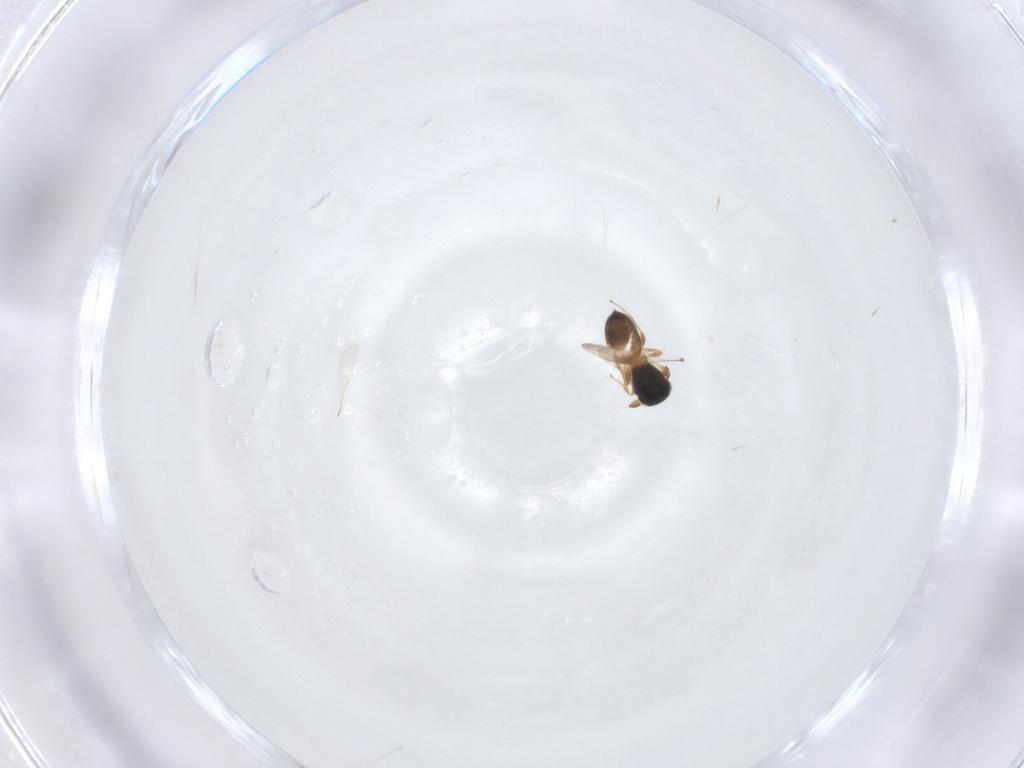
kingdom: Animalia
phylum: Arthropoda
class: Insecta
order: Hymenoptera
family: Scelionidae
